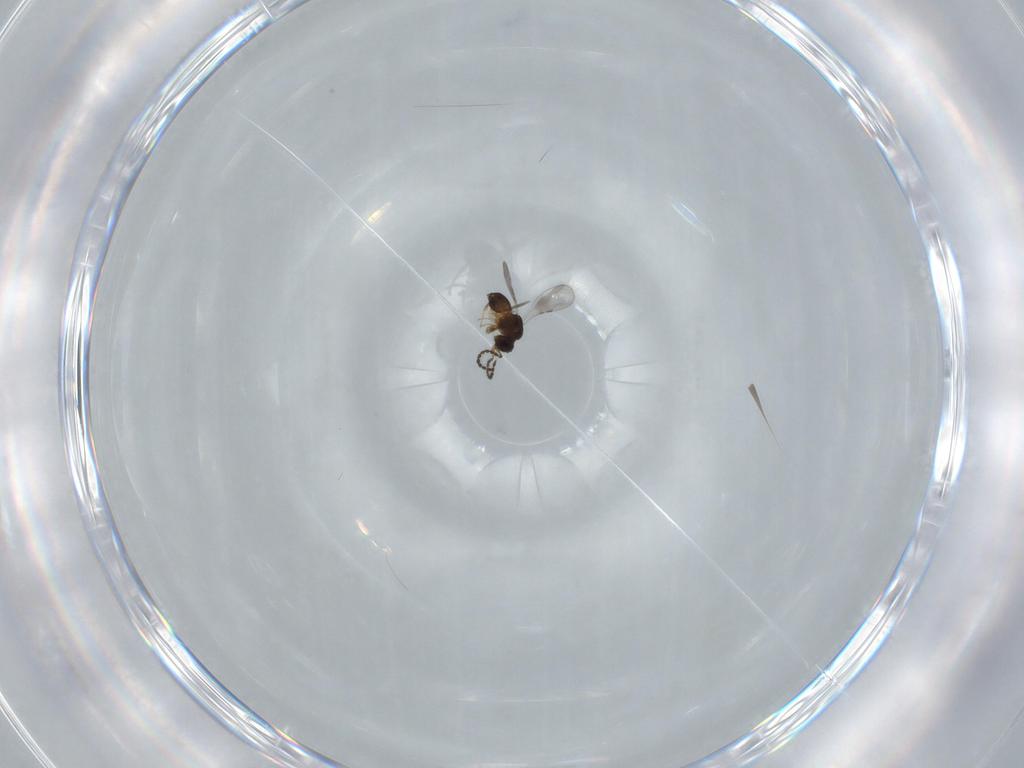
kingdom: Animalia
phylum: Arthropoda
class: Insecta
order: Hymenoptera
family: Formicidae
